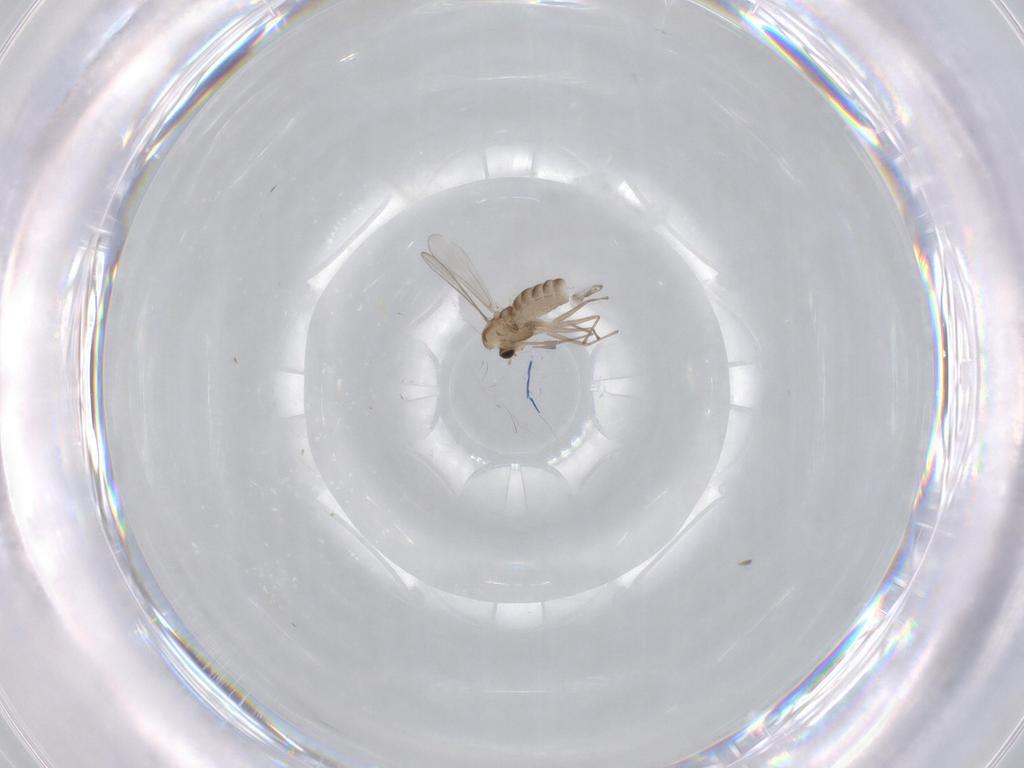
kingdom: Animalia
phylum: Arthropoda
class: Insecta
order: Diptera
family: Chironomidae
